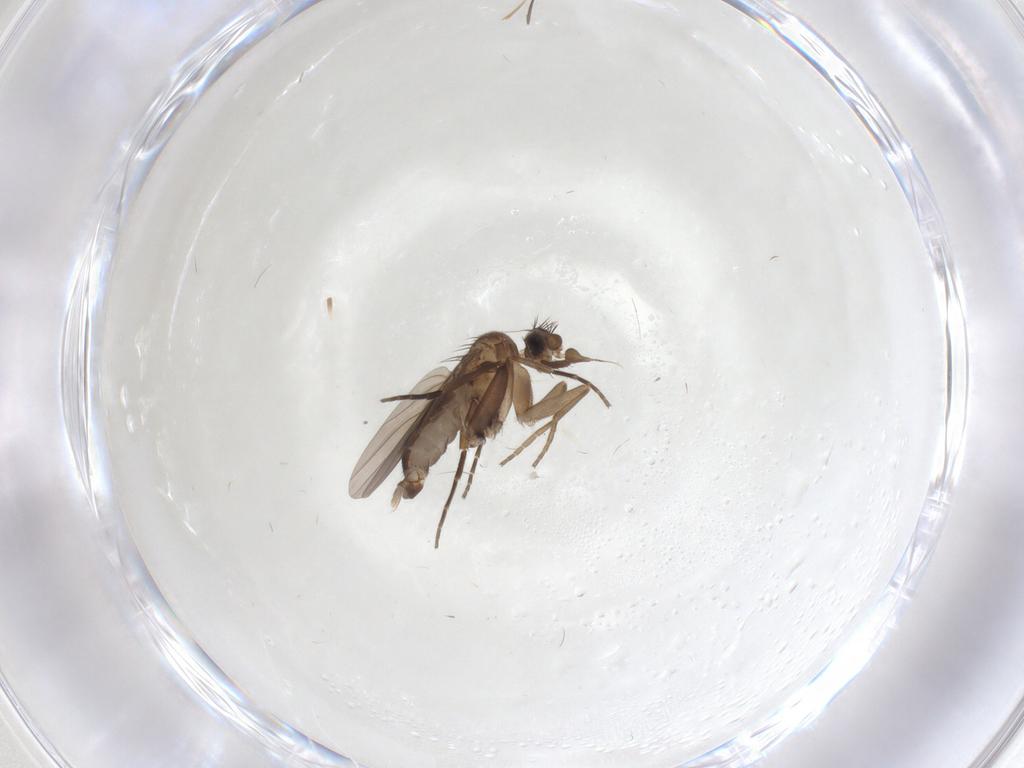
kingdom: Animalia
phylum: Arthropoda
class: Insecta
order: Diptera
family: Phoridae
